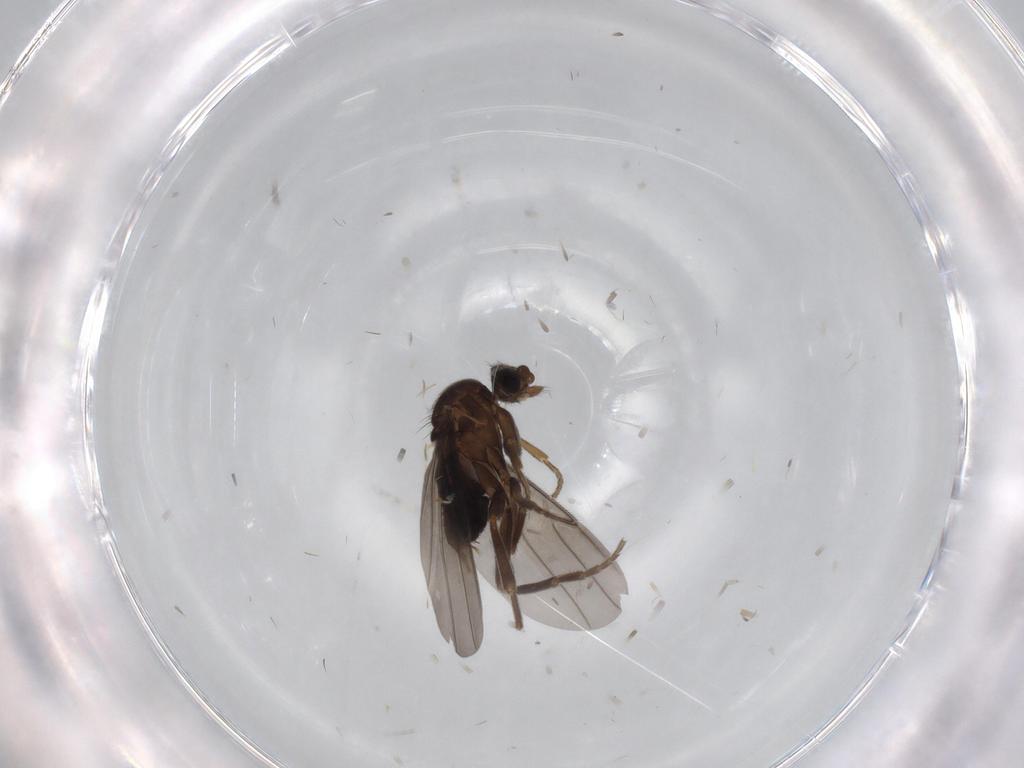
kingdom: Animalia
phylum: Arthropoda
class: Insecta
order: Diptera
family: Phoridae
